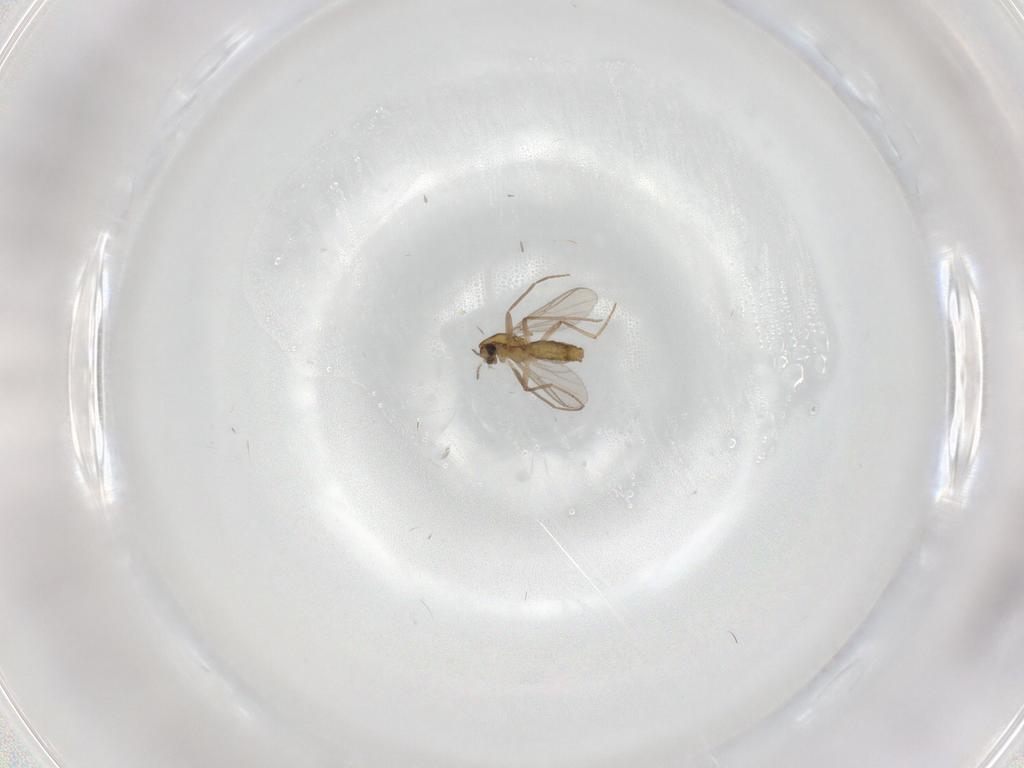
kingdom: Animalia
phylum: Arthropoda
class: Insecta
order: Diptera
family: Chironomidae
